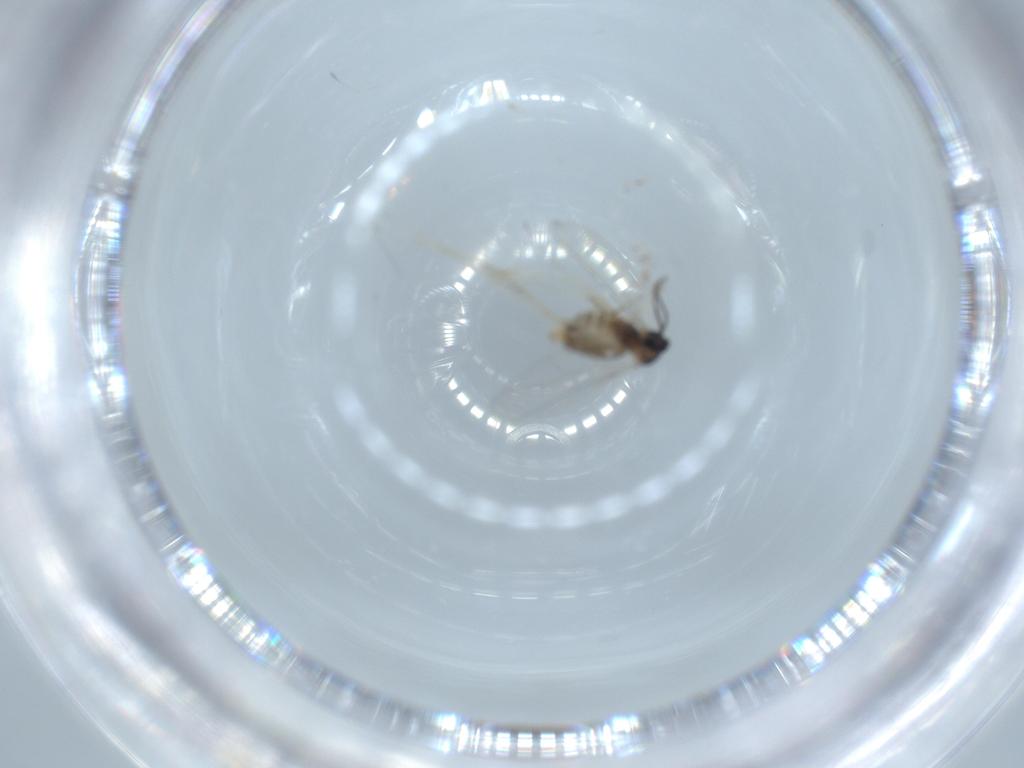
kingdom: Animalia
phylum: Arthropoda
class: Insecta
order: Diptera
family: Cecidomyiidae
